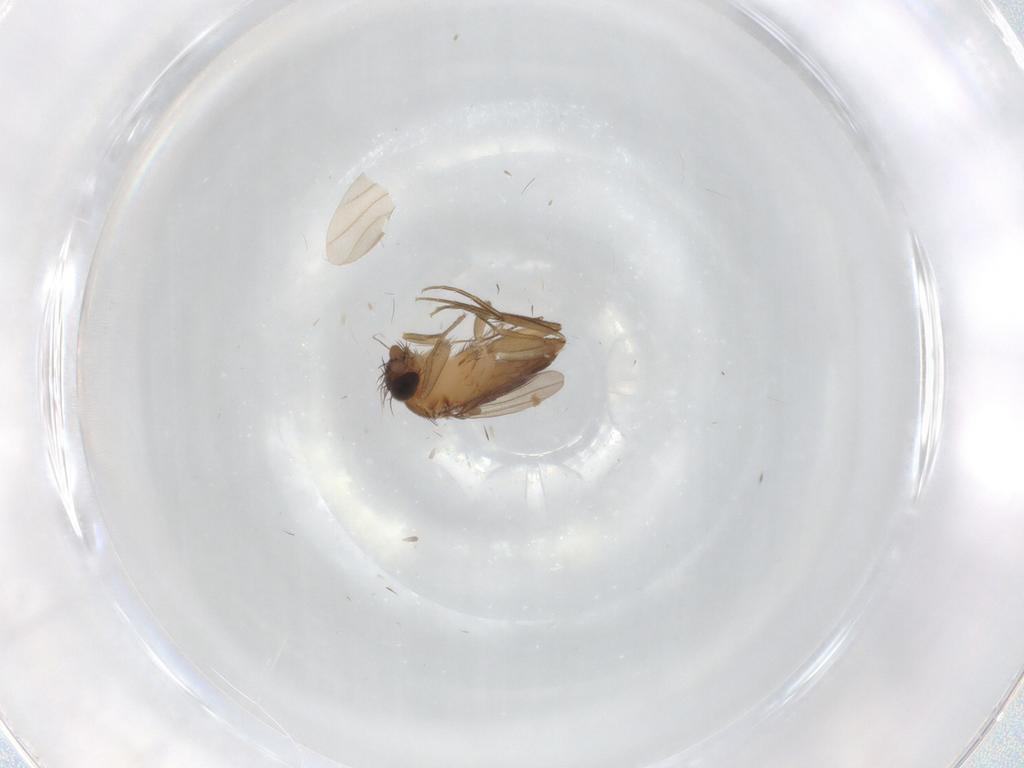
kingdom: Animalia
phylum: Arthropoda
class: Insecta
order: Diptera
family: Phoridae
